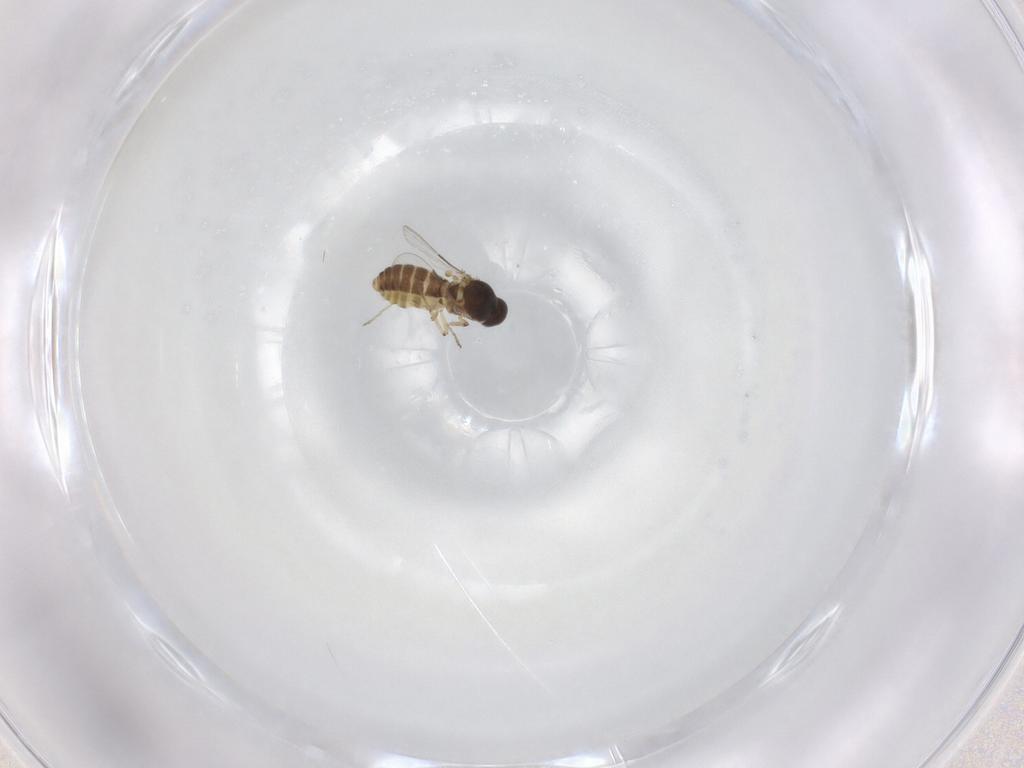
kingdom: Animalia
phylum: Arthropoda
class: Insecta
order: Diptera
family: Ceratopogonidae
